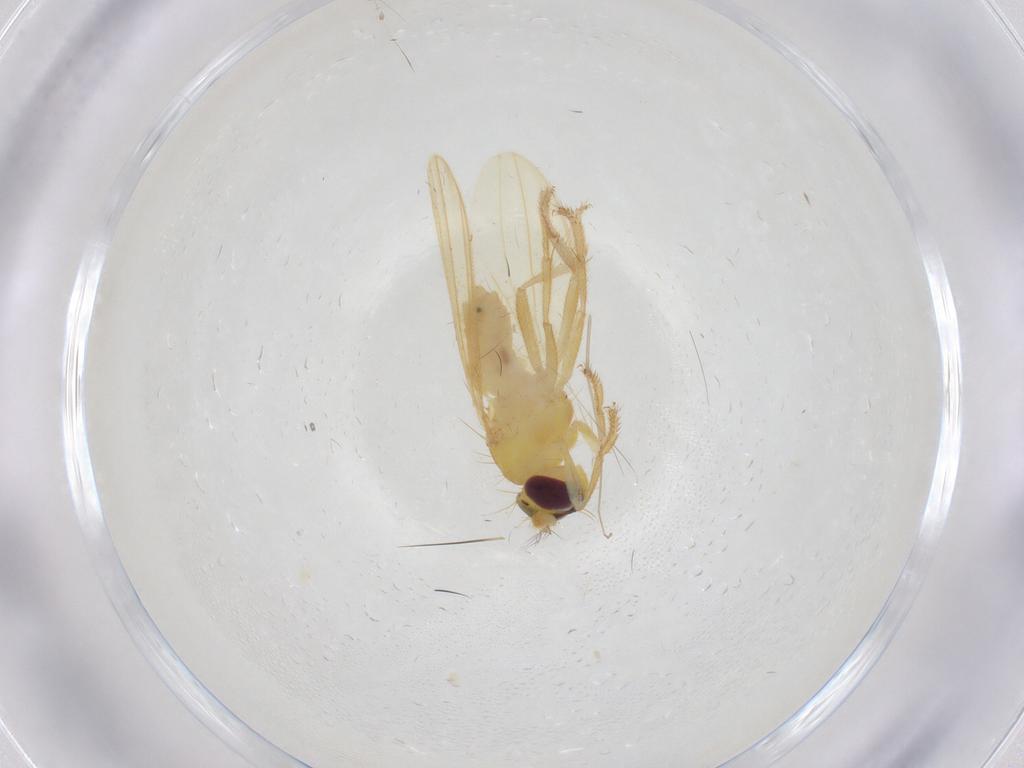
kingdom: Animalia
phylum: Arthropoda
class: Insecta
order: Diptera
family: Periscelididae
